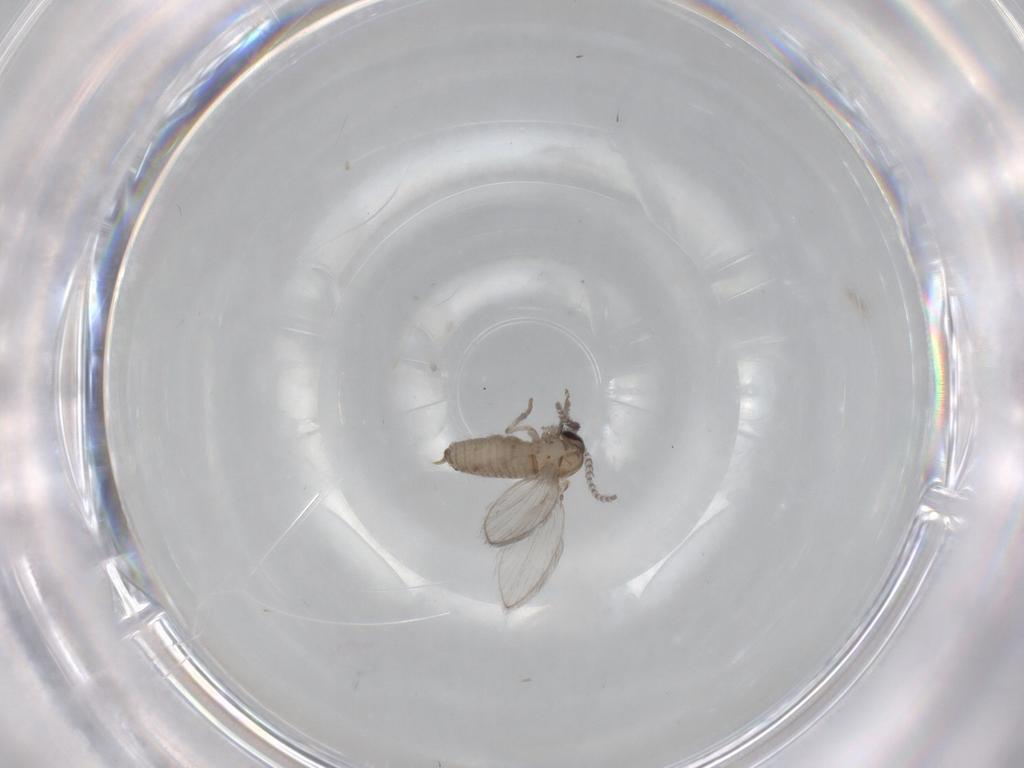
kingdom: Animalia
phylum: Arthropoda
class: Insecta
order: Diptera
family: Psychodidae
